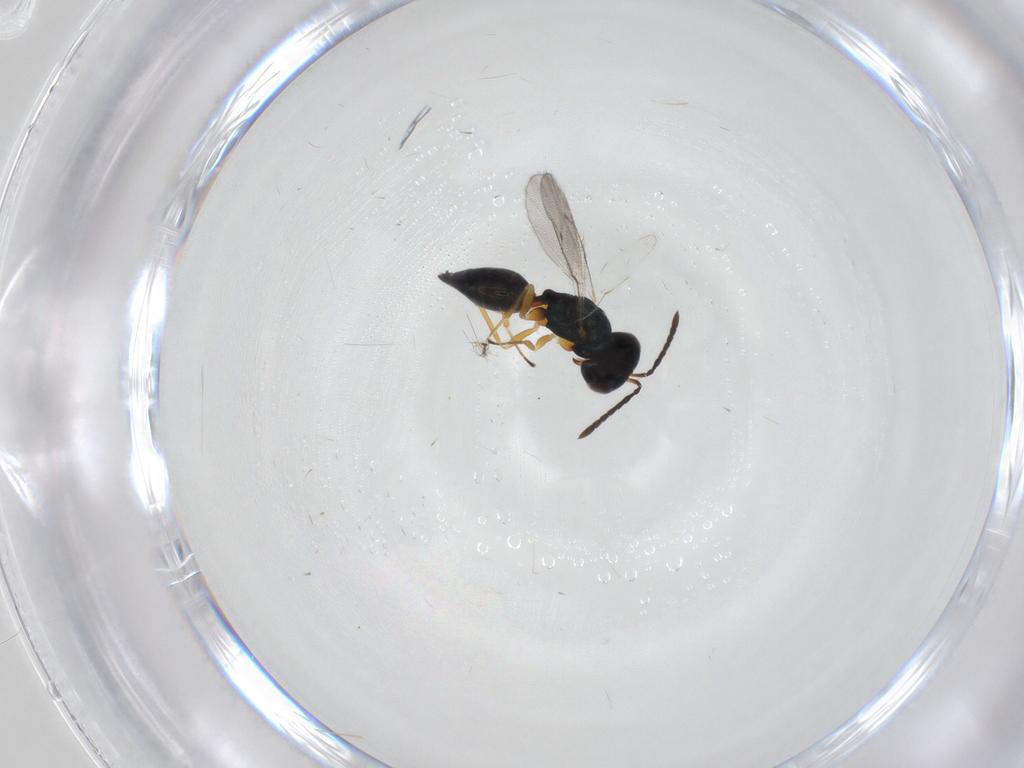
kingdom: Animalia
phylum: Arthropoda
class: Insecta
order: Hymenoptera
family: Pteromalidae
